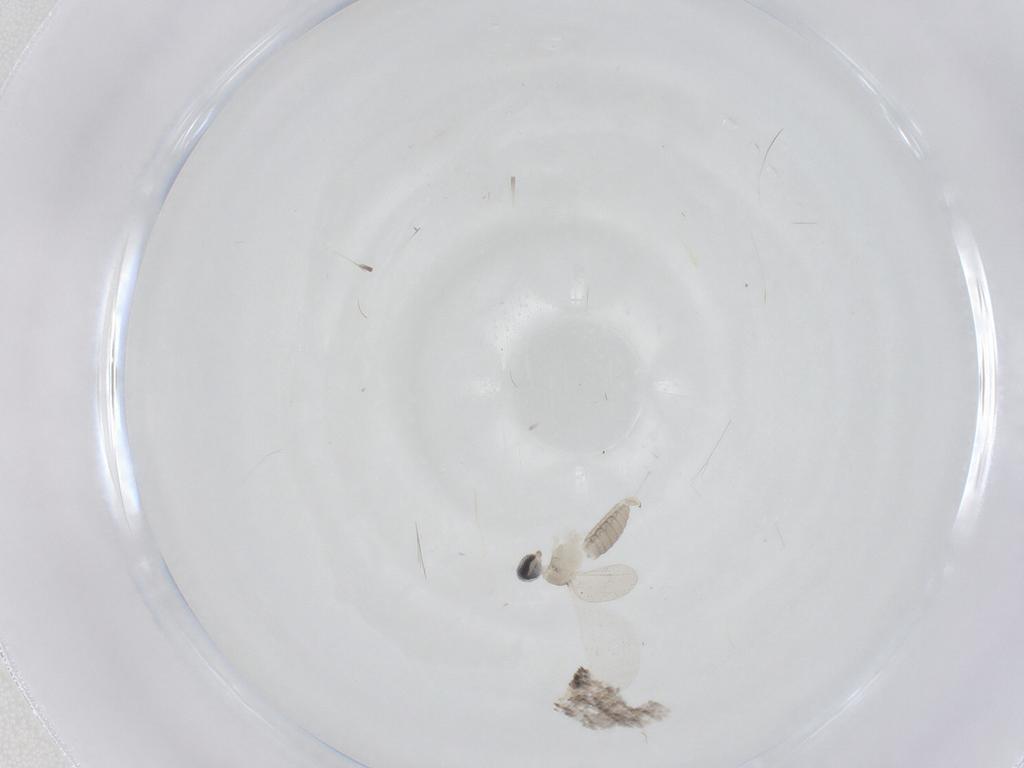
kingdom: Animalia
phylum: Arthropoda
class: Insecta
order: Diptera
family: Cecidomyiidae
